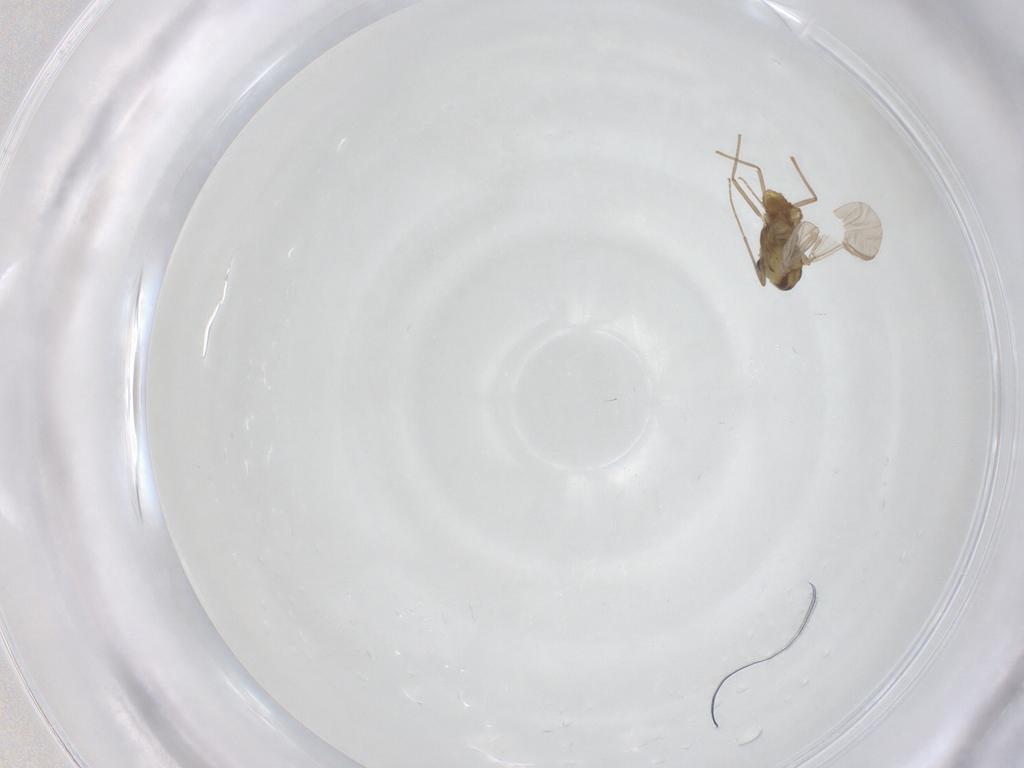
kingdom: Animalia
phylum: Arthropoda
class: Insecta
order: Diptera
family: Chironomidae
